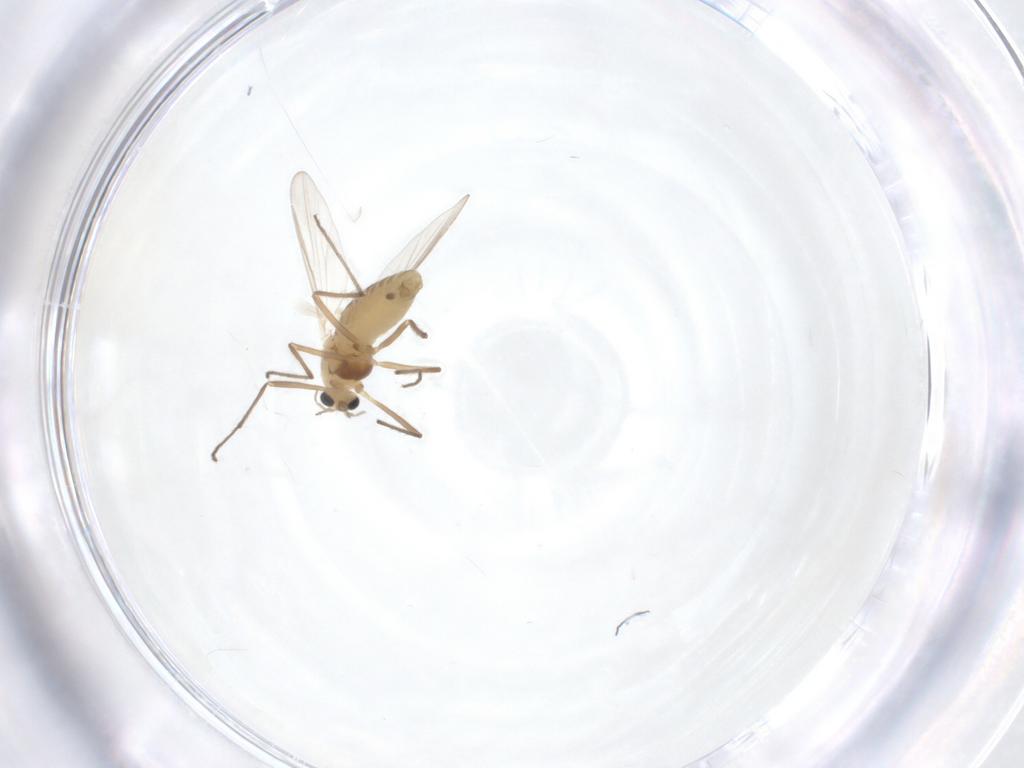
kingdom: Animalia
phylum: Arthropoda
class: Insecta
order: Diptera
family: Chironomidae
